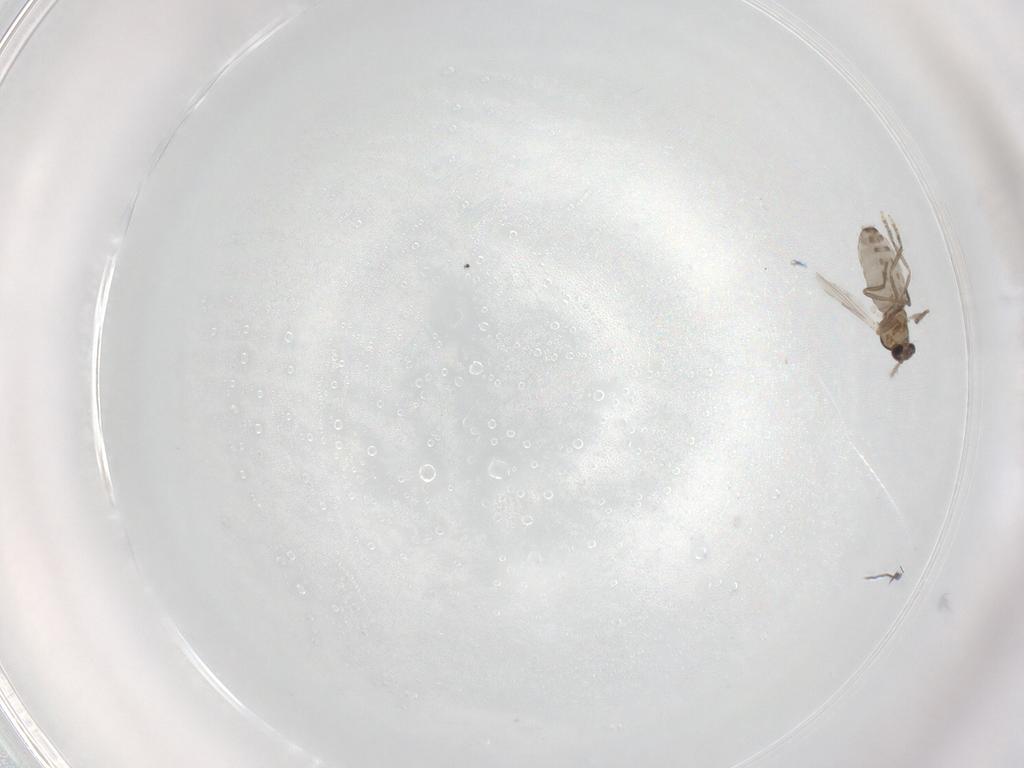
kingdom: Animalia
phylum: Arthropoda
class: Insecta
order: Diptera
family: Ceratopogonidae
